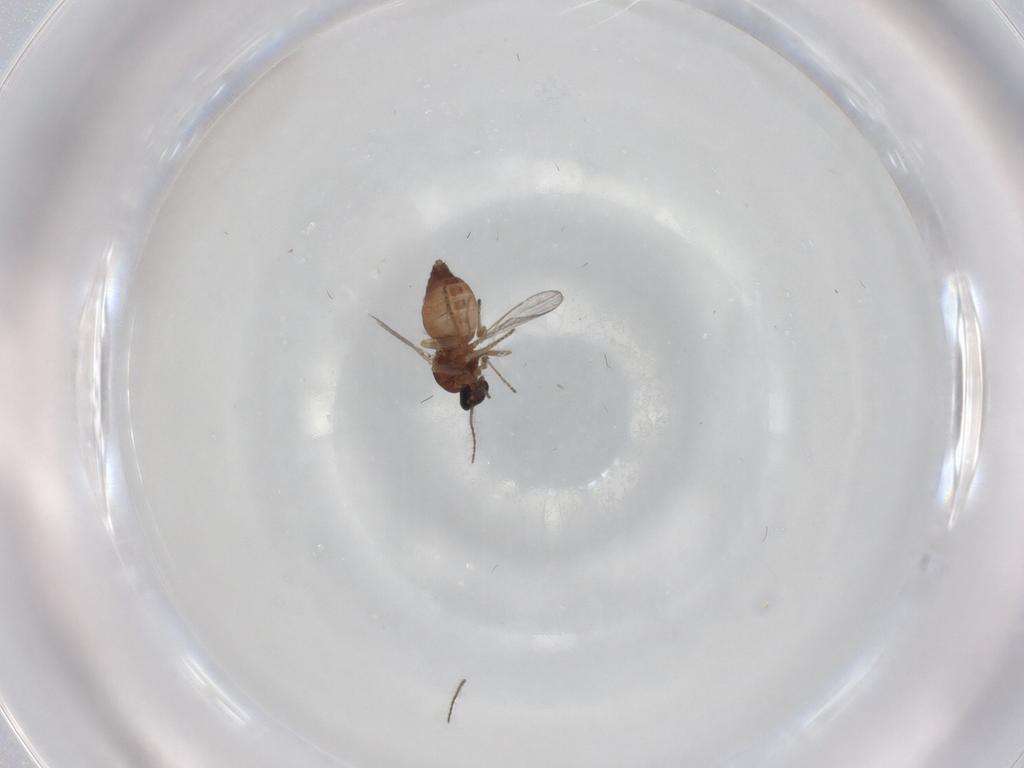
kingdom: Animalia
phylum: Arthropoda
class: Insecta
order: Diptera
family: Ceratopogonidae
